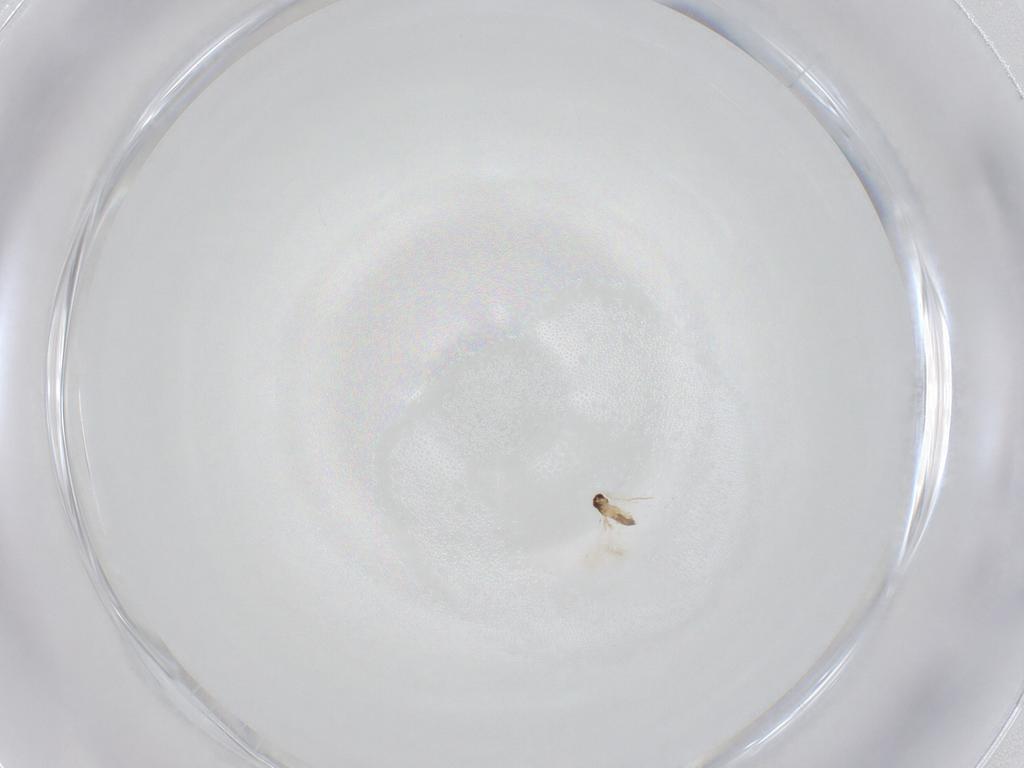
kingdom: Animalia
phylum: Arthropoda
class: Insecta
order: Hymenoptera
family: Mymaridae
